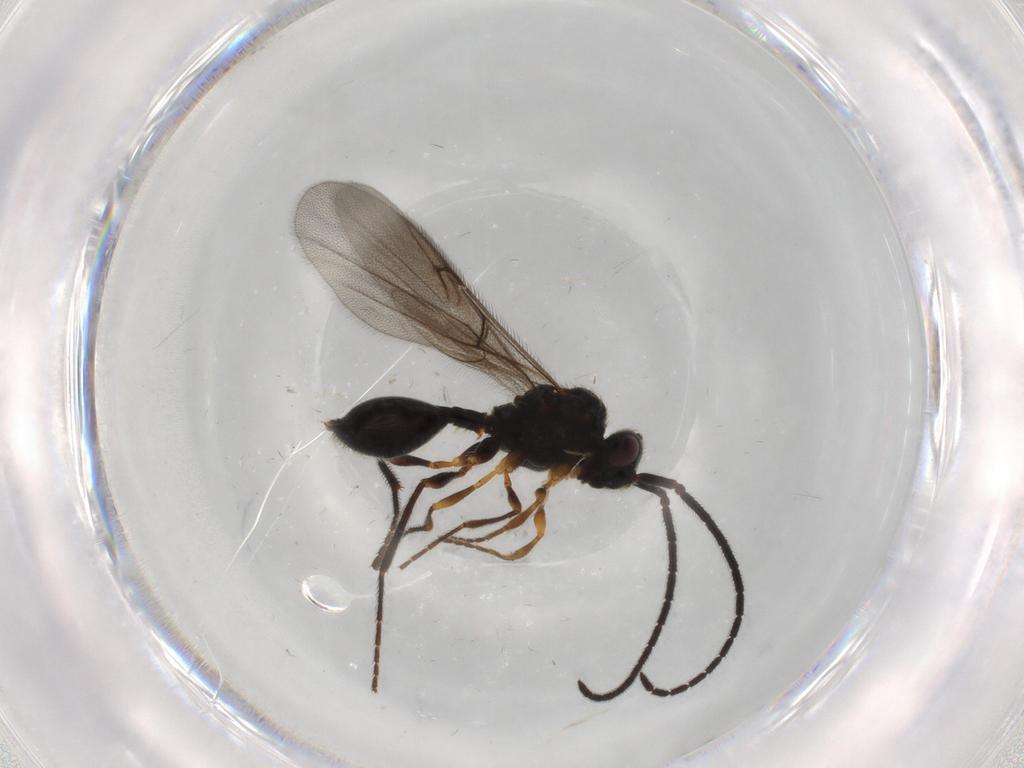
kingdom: Animalia
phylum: Arthropoda
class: Insecta
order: Hymenoptera
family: Diapriidae
